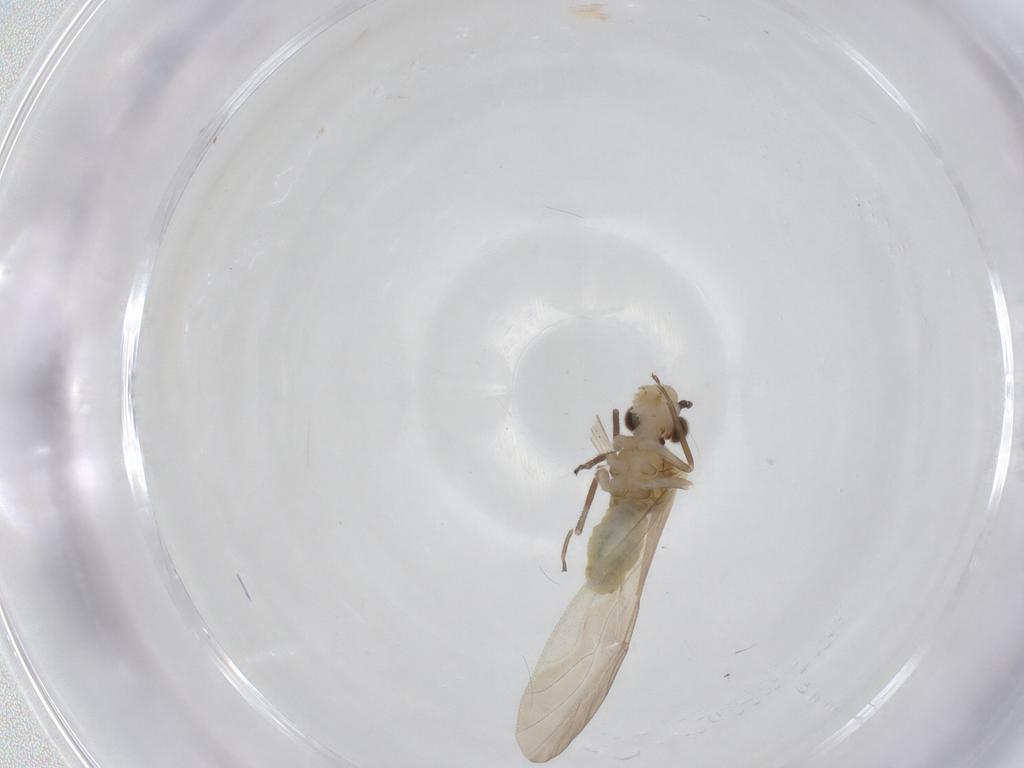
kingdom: Animalia
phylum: Arthropoda
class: Insecta
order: Psocodea
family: Caeciliusidae
